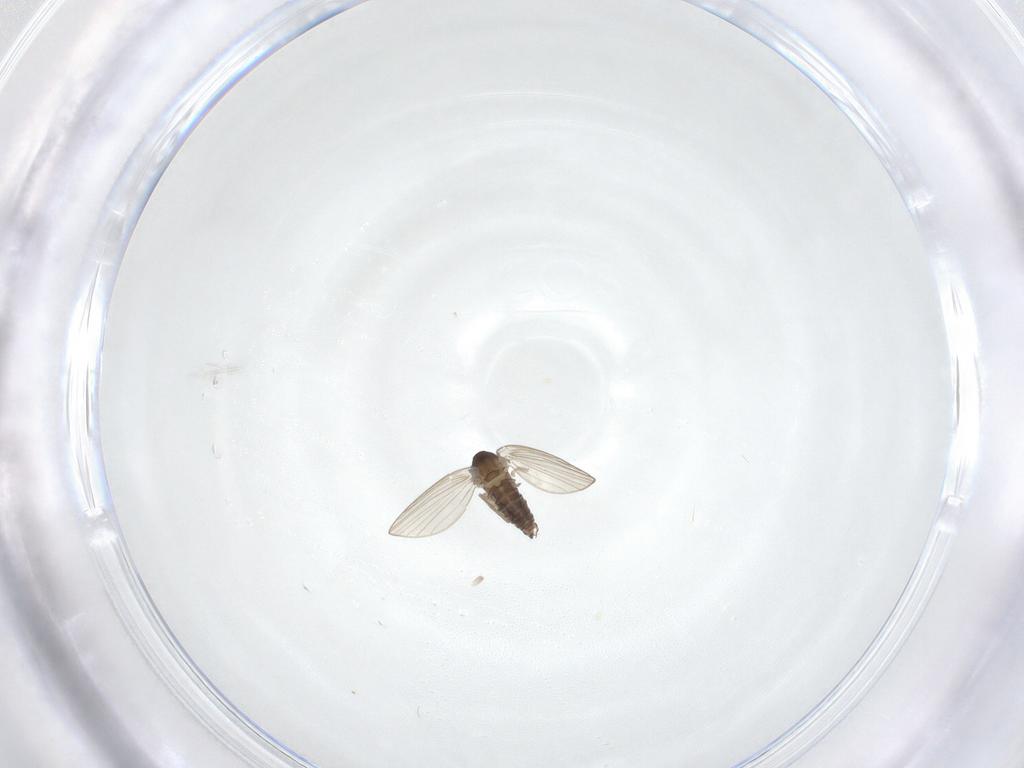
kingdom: Animalia
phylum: Arthropoda
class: Insecta
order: Diptera
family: Psychodidae
